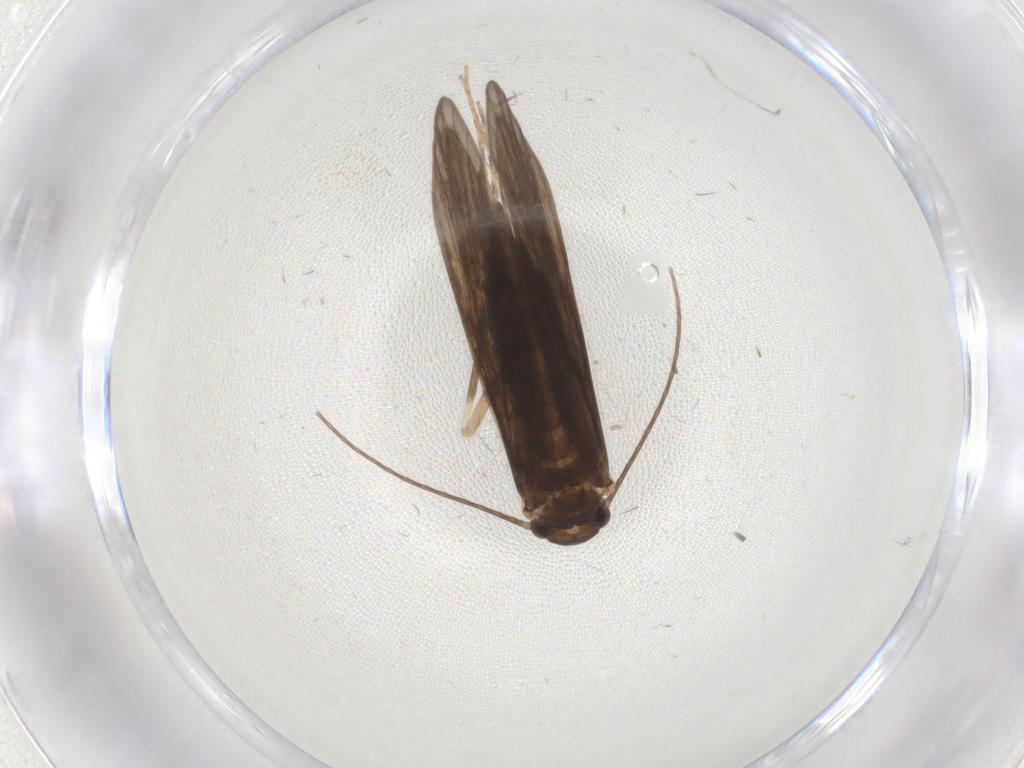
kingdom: Animalia
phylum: Arthropoda
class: Insecta
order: Trichoptera
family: Xiphocentronidae
